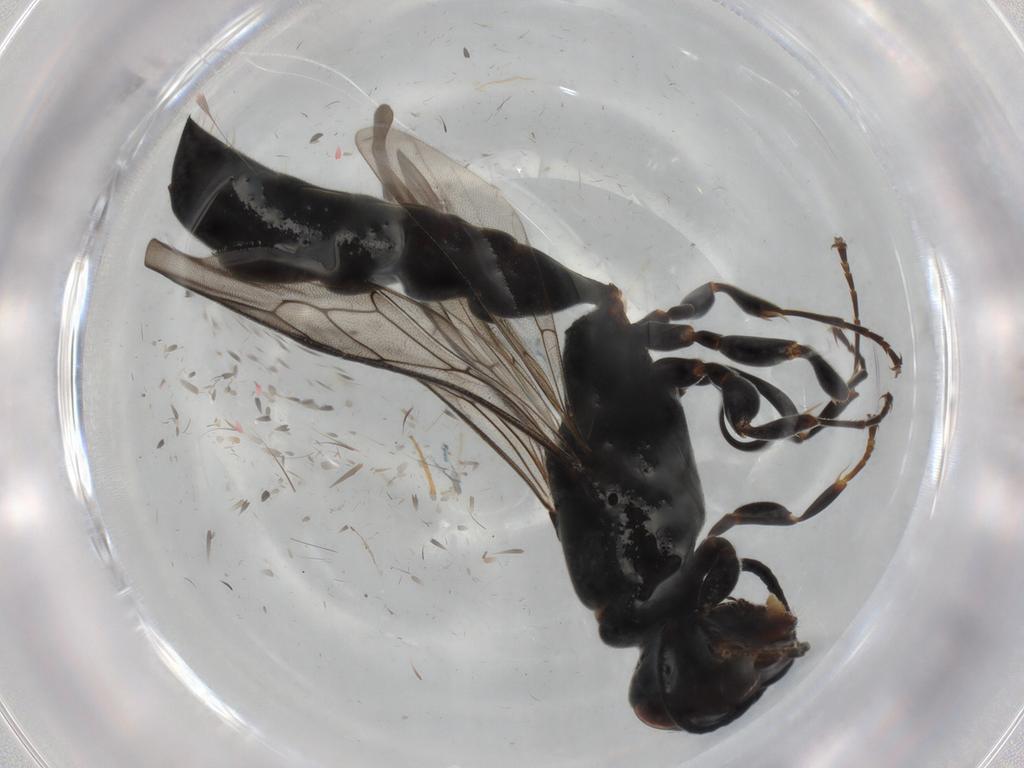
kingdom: Animalia
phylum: Arthropoda
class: Insecta
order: Hymenoptera
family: Crabronidae
